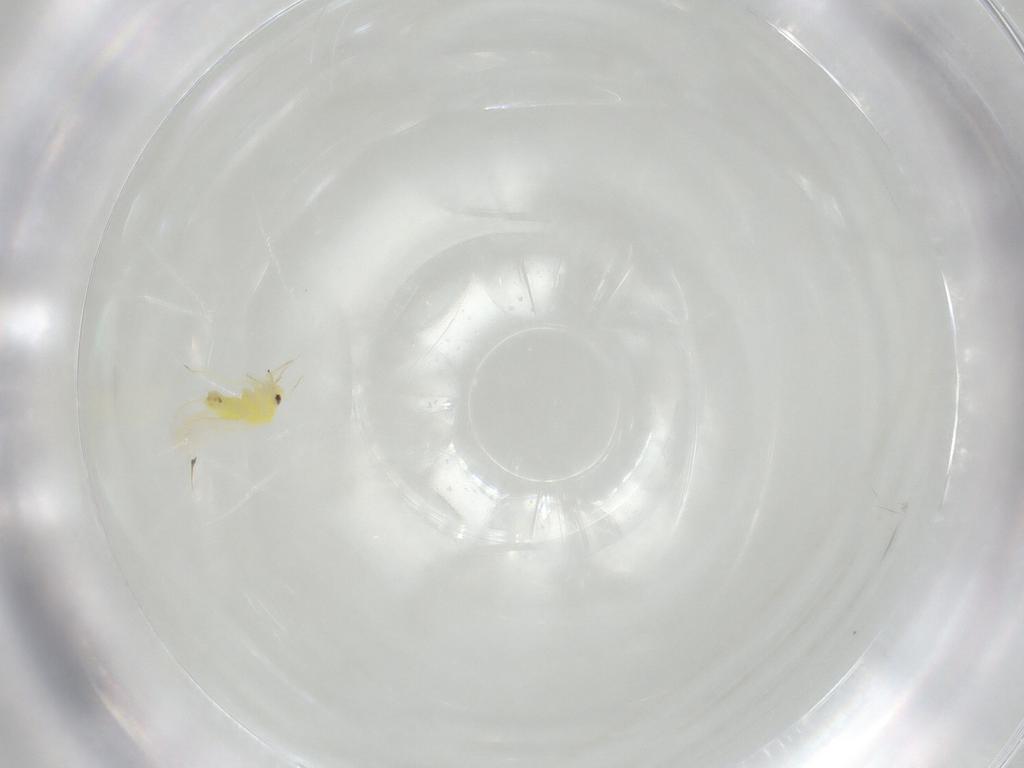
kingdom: Animalia
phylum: Arthropoda
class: Insecta
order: Hemiptera
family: Aleyrodidae
